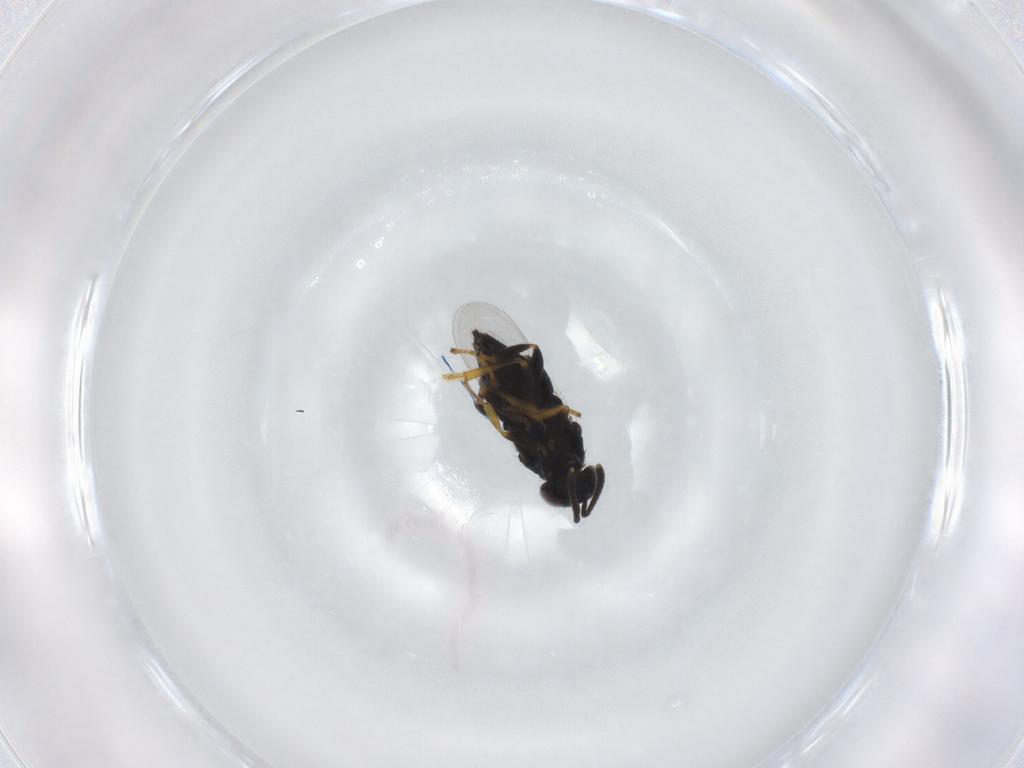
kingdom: Animalia
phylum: Arthropoda
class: Insecta
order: Hymenoptera
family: Encyrtidae
